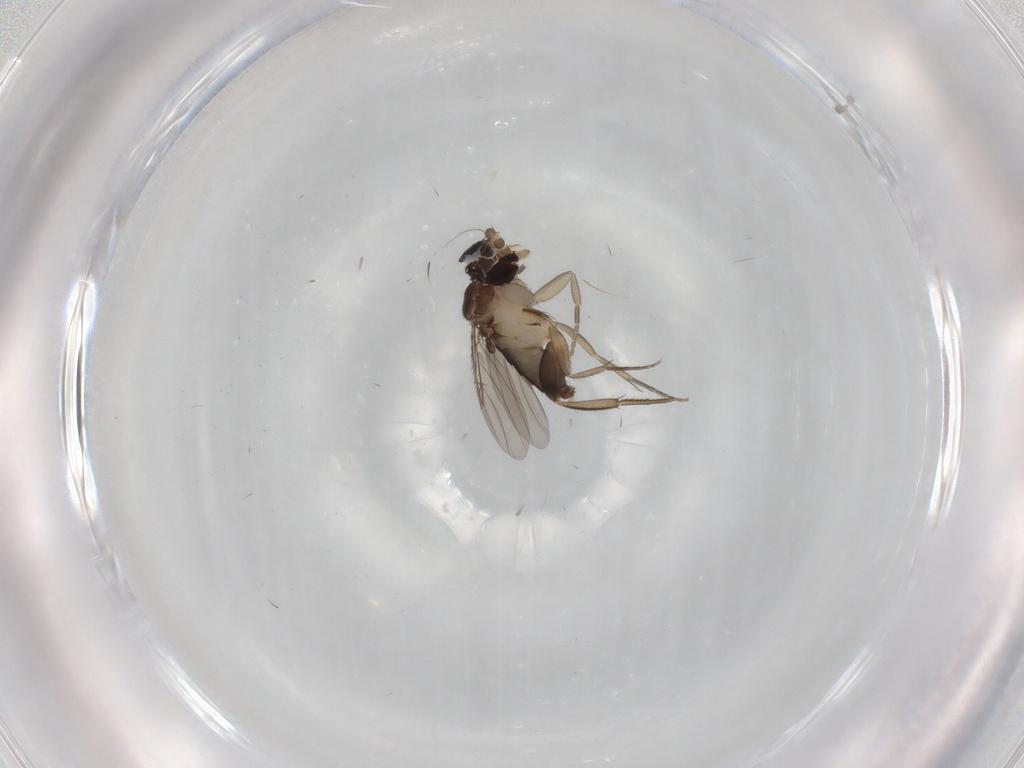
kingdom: Animalia
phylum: Arthropoda
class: Insecta
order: Diptera
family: Phoridae
